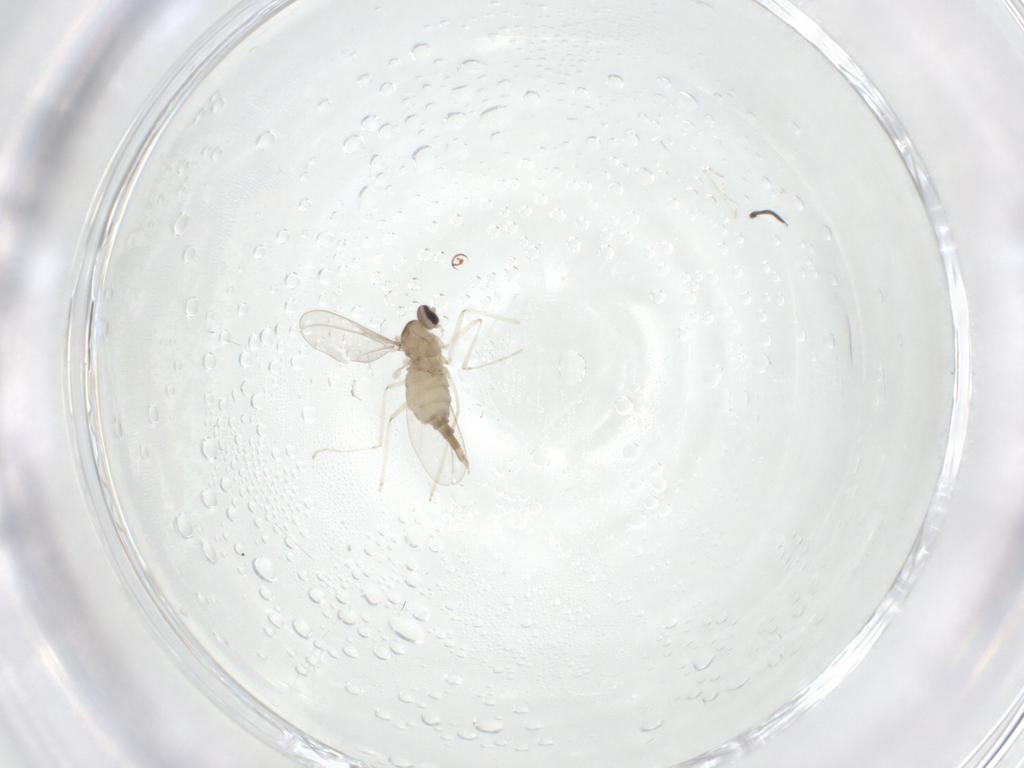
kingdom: Animalia
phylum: Arthropoda
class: Insecta
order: Diptera
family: Cecidomyiidae
